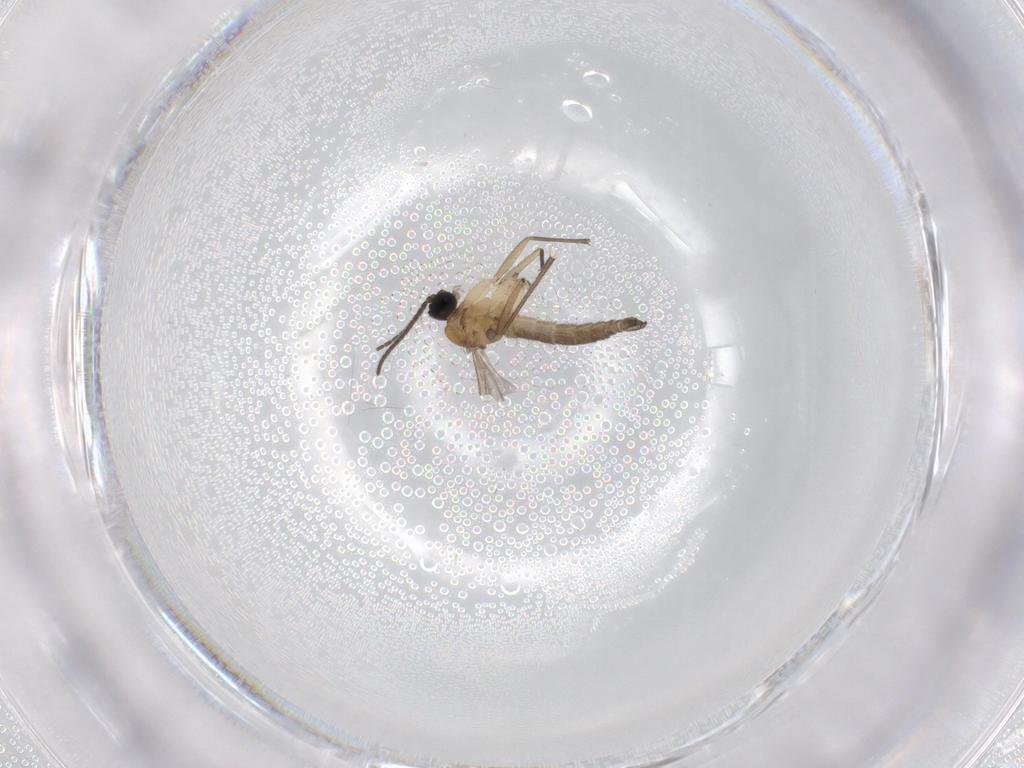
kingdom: Animalia
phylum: Arthropoda
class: Insecta
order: Diptera
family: Sciaridae
